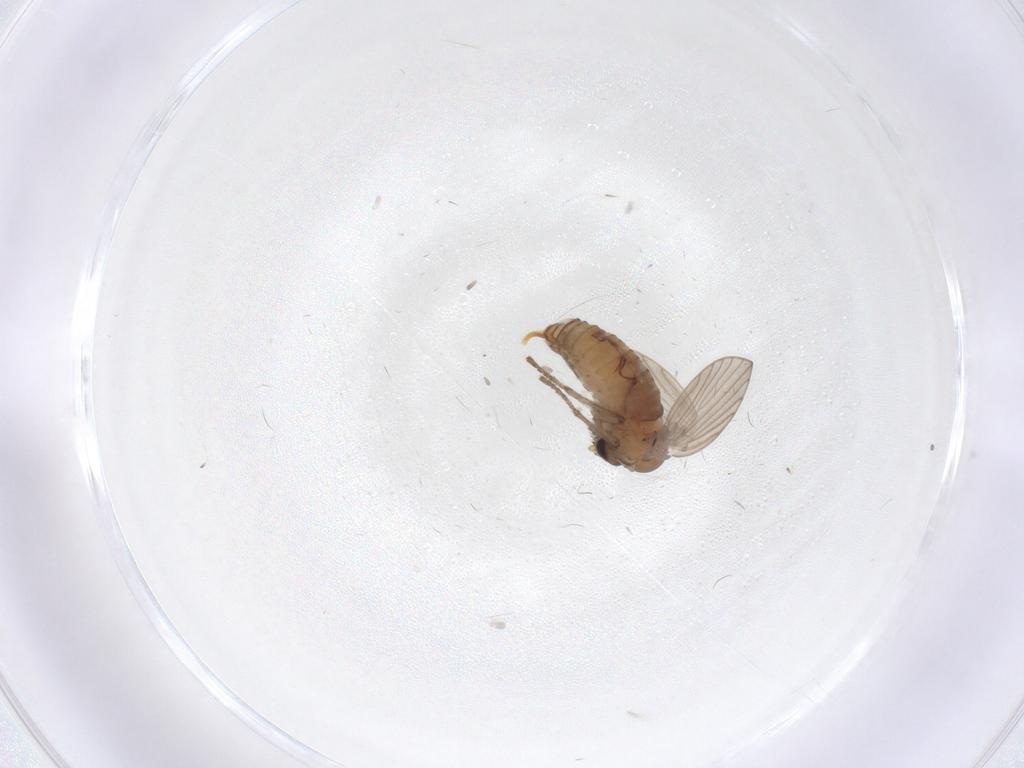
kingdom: Animalia
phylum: Arthropoda
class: Insecta
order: Diptera
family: Psychodidae
